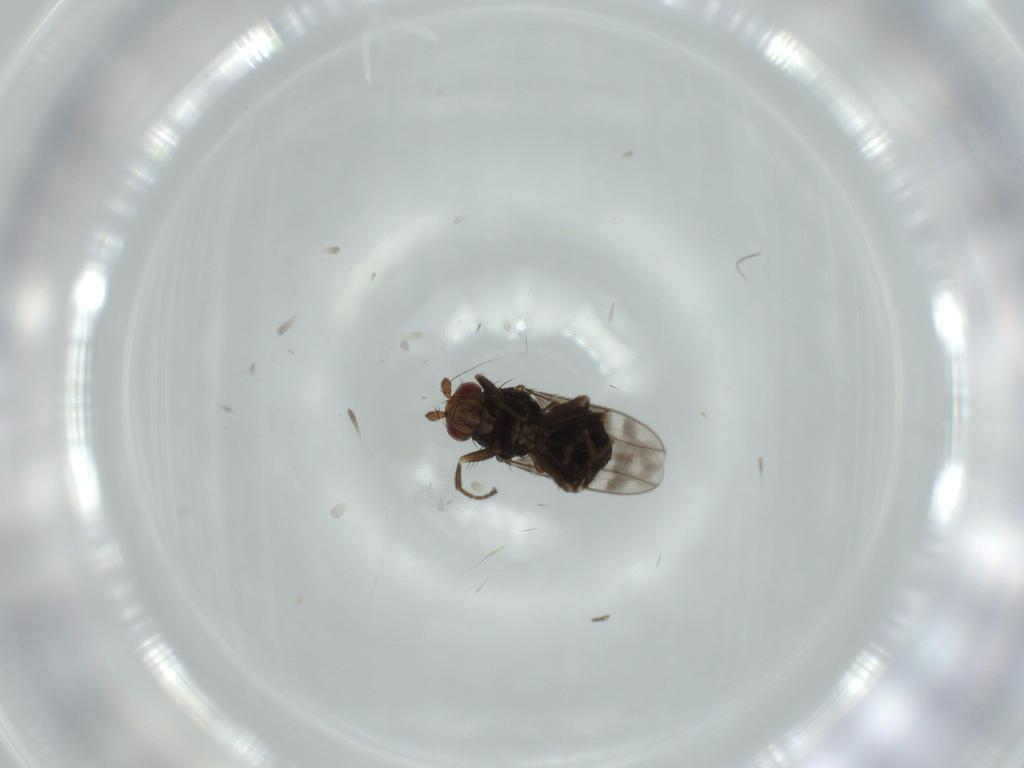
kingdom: Animalia
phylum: Arthropoda
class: Insecta
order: Diptera
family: Sphaeroceridae
